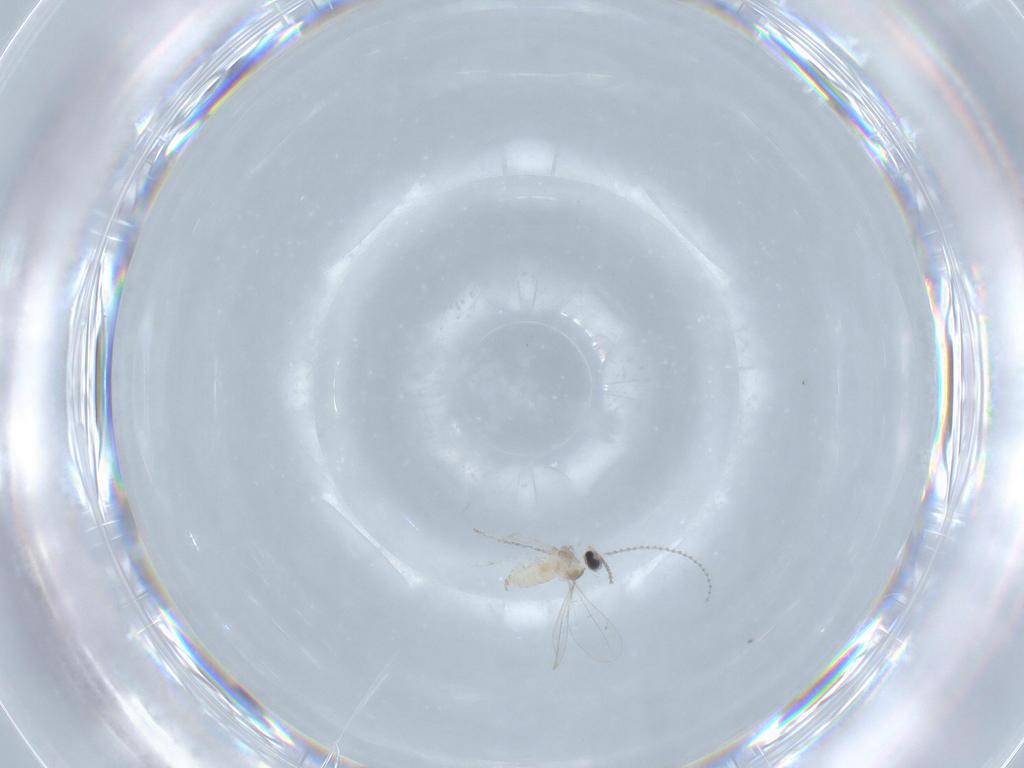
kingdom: Animalia
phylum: Arthropoda
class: Insecta
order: Diptera
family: Cecidomyiidae
